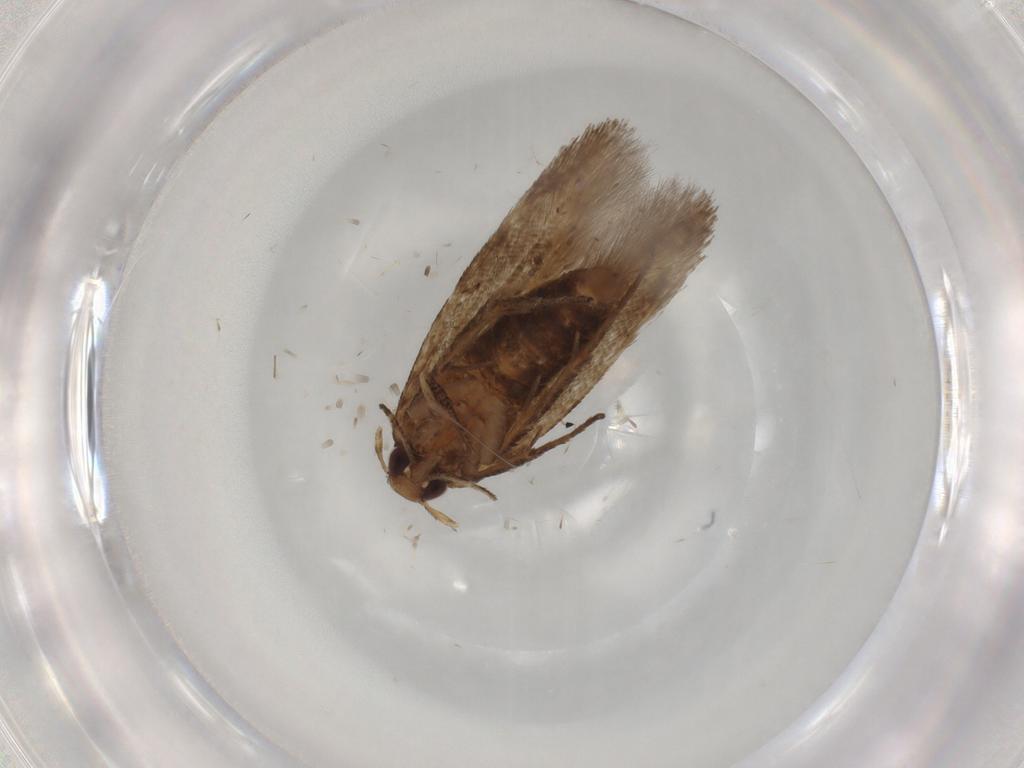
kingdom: Animalia
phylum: Arthropoda
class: Insecta
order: Lepidoptera
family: Cosmopterigidae
